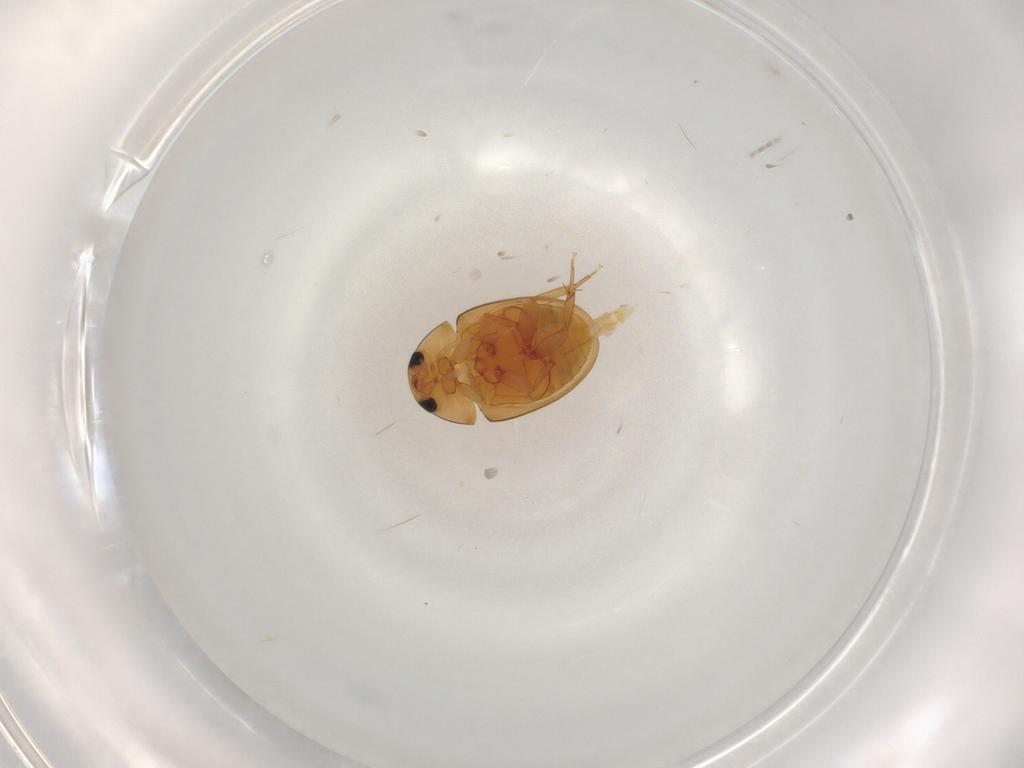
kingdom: Animalia
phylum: Arthropoda
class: Insecta
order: Coleoptera
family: Phalacridae
